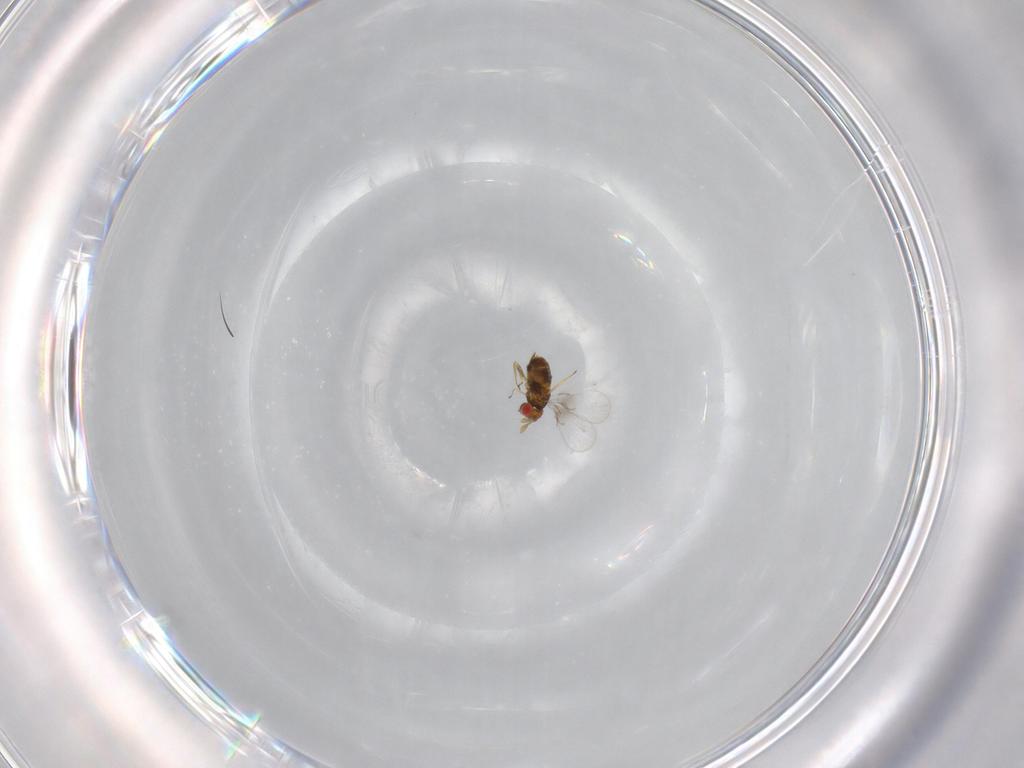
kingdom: Animalia
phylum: Arthropoda
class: Insecta
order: Hymenoptera
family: Trichogrammatidae
